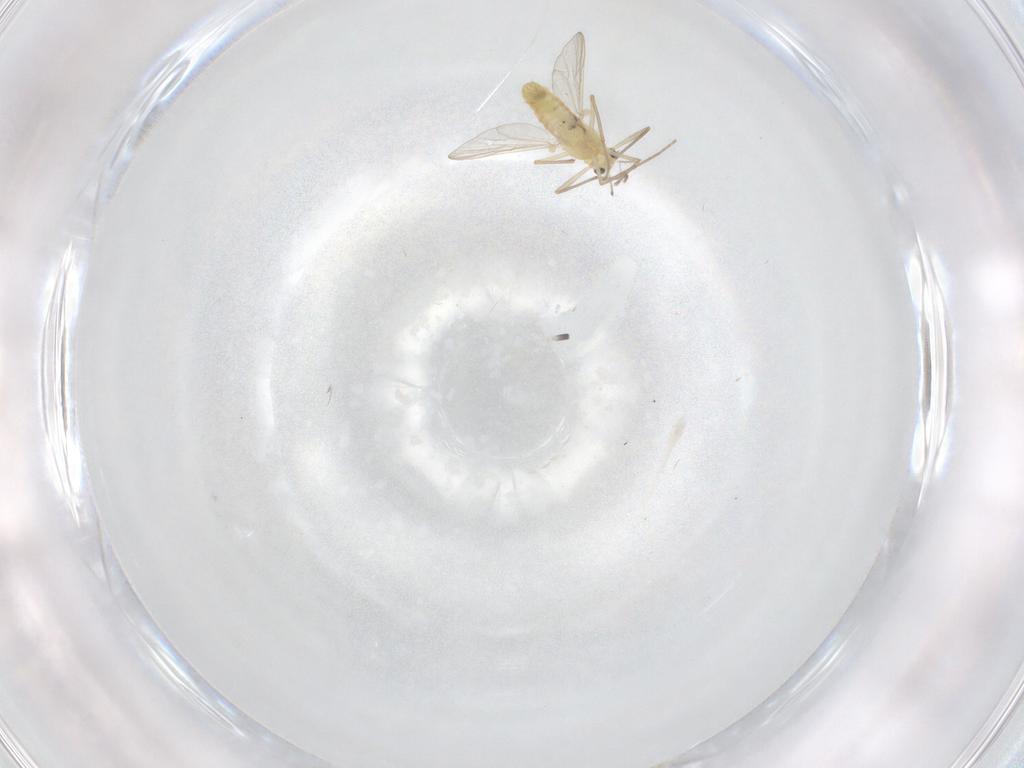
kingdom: Animalia
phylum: Arthropoda
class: Insecta
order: Diptera
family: Chironomidae
